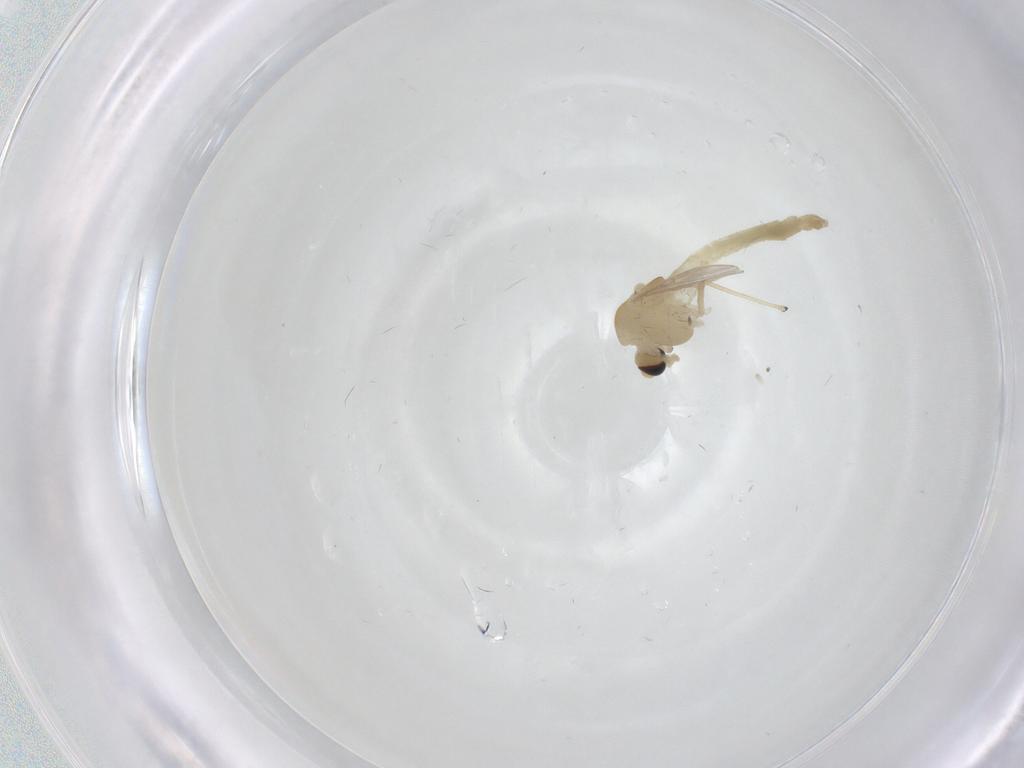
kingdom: Animalia
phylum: Arthropoda
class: Insecta
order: Diptera
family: Chironomidae
